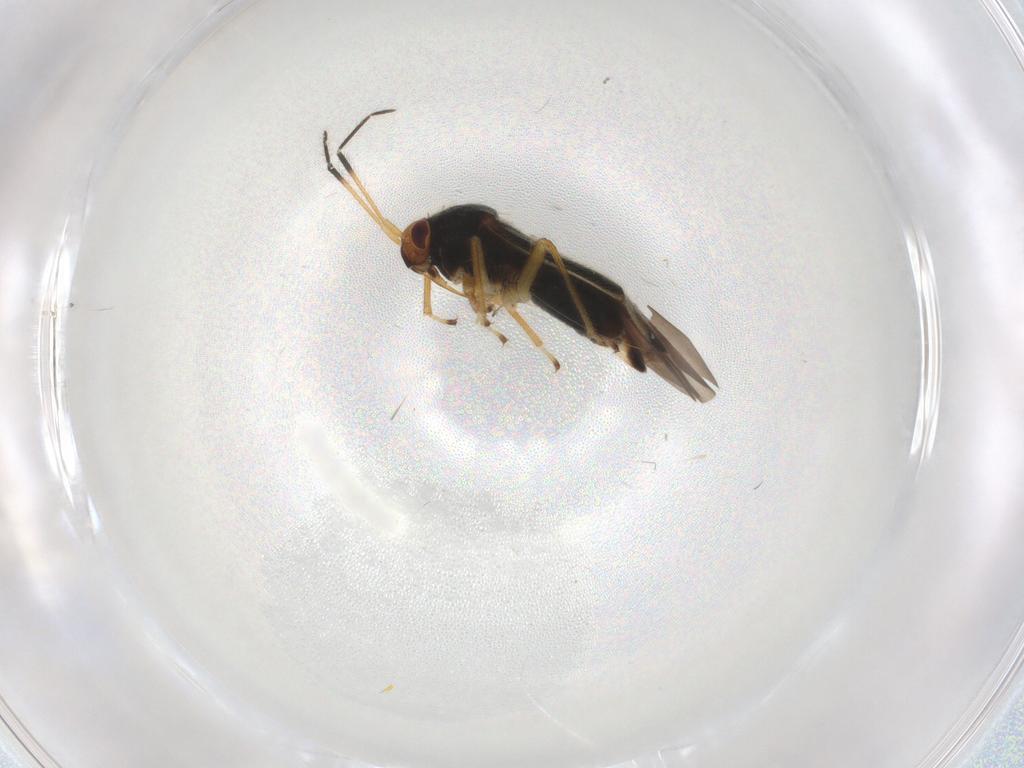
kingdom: Animalia
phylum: Arthropoda
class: Insecta
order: Hemiptera
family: Miridae
